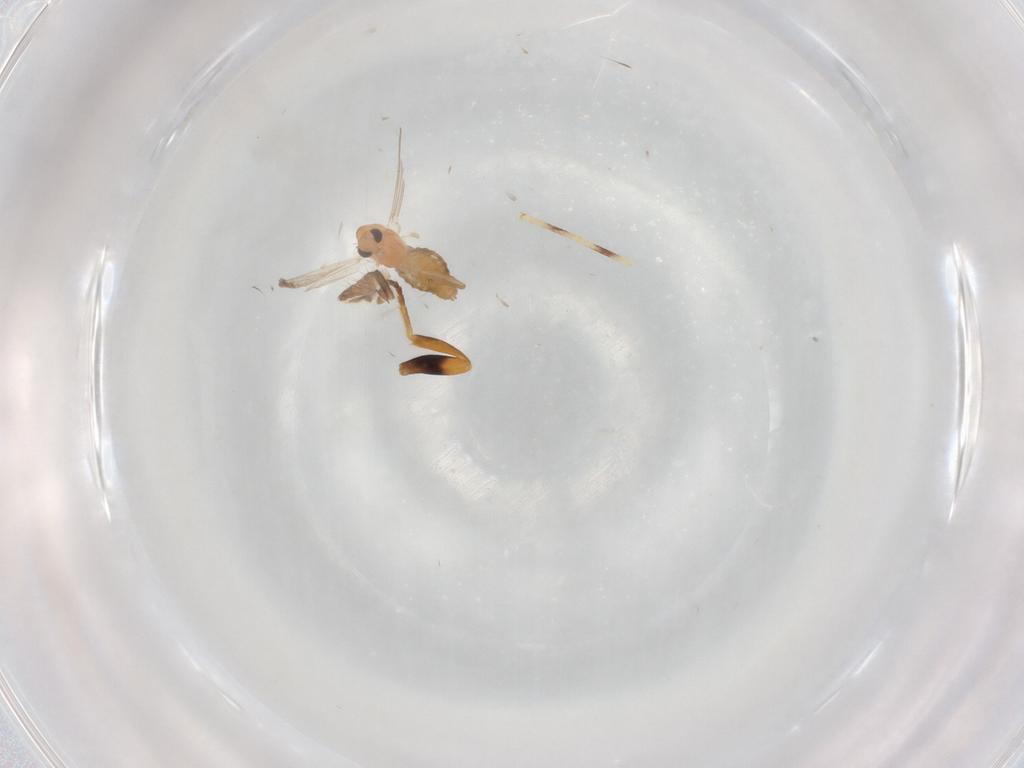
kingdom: Animalia
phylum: Arthropoda
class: Insecta
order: Diptera
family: Chironomidae
